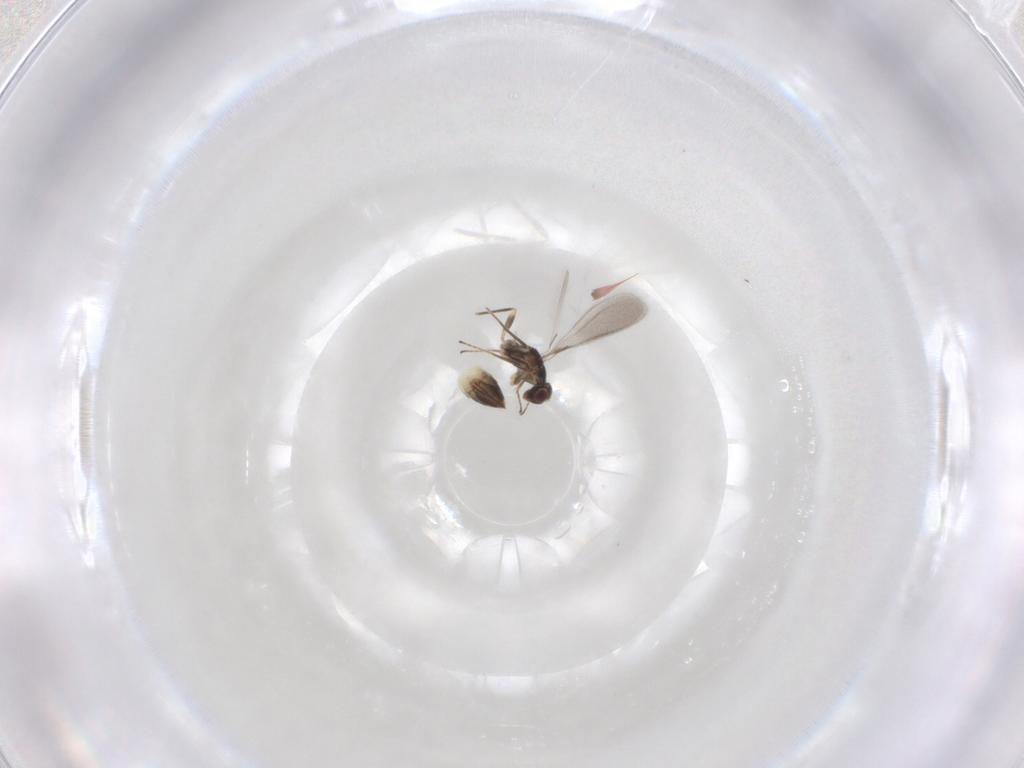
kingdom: Animalia
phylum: Arthropoda
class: Insecta
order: Hymenoptera
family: Mymaridae
